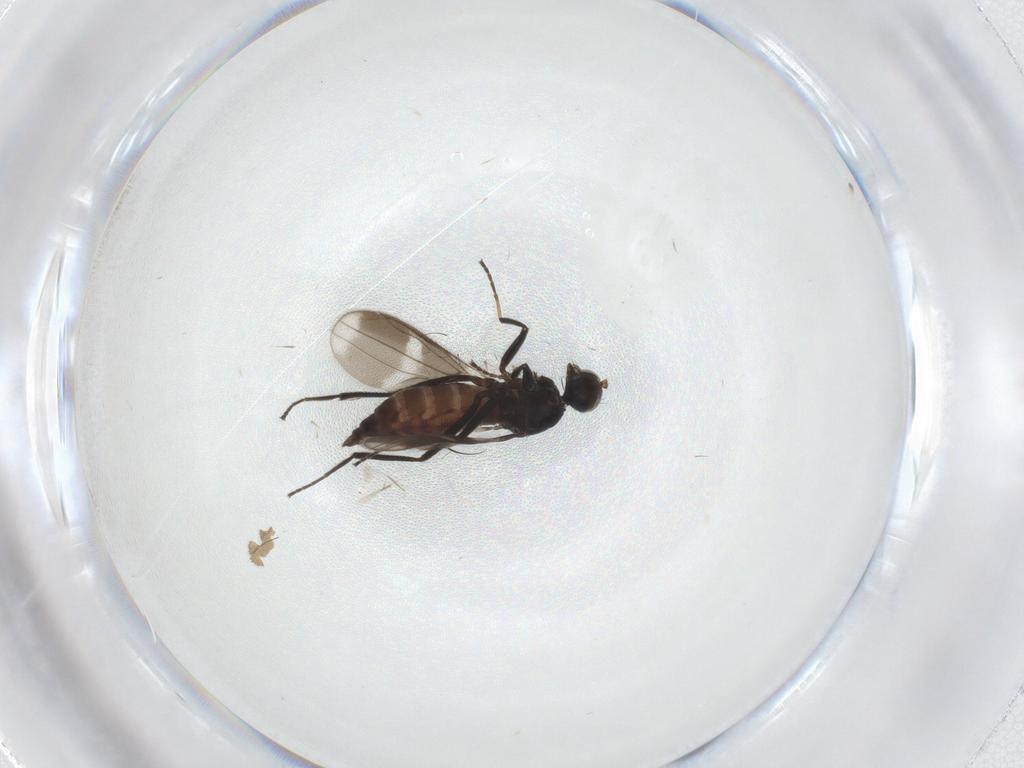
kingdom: Animalia
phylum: Arthropoda
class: Insecta
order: Diptera
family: Hybotidae
